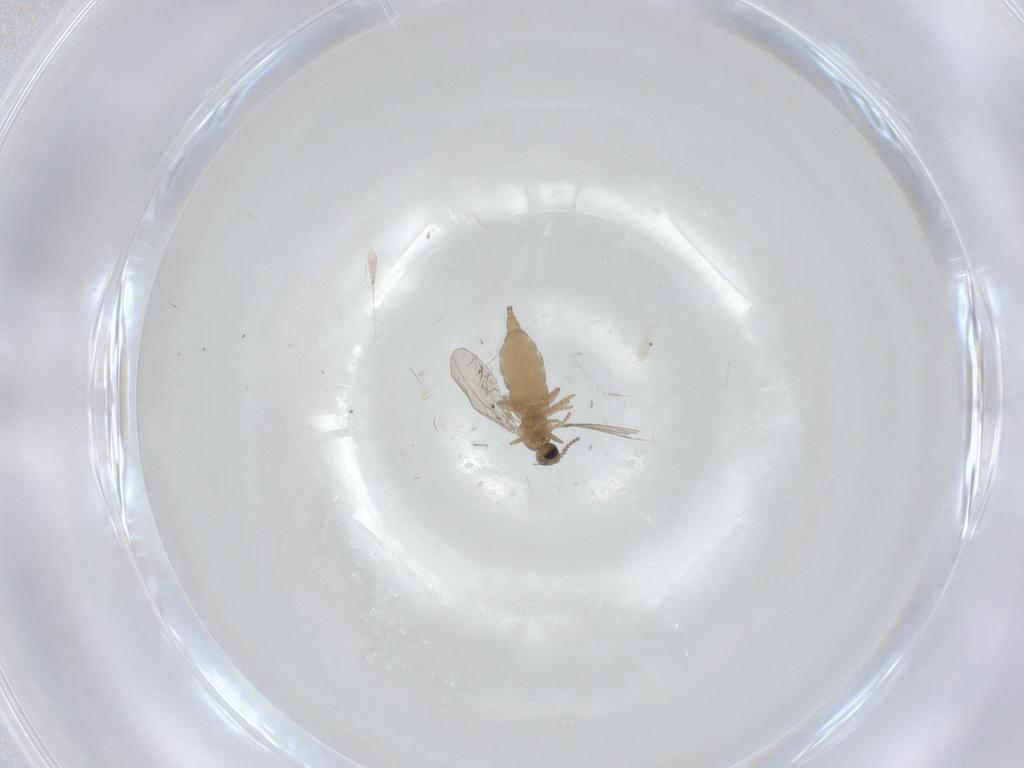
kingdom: Animalia
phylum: Arthropoda
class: Insecta
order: Diptera
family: Cecidomyiidae
